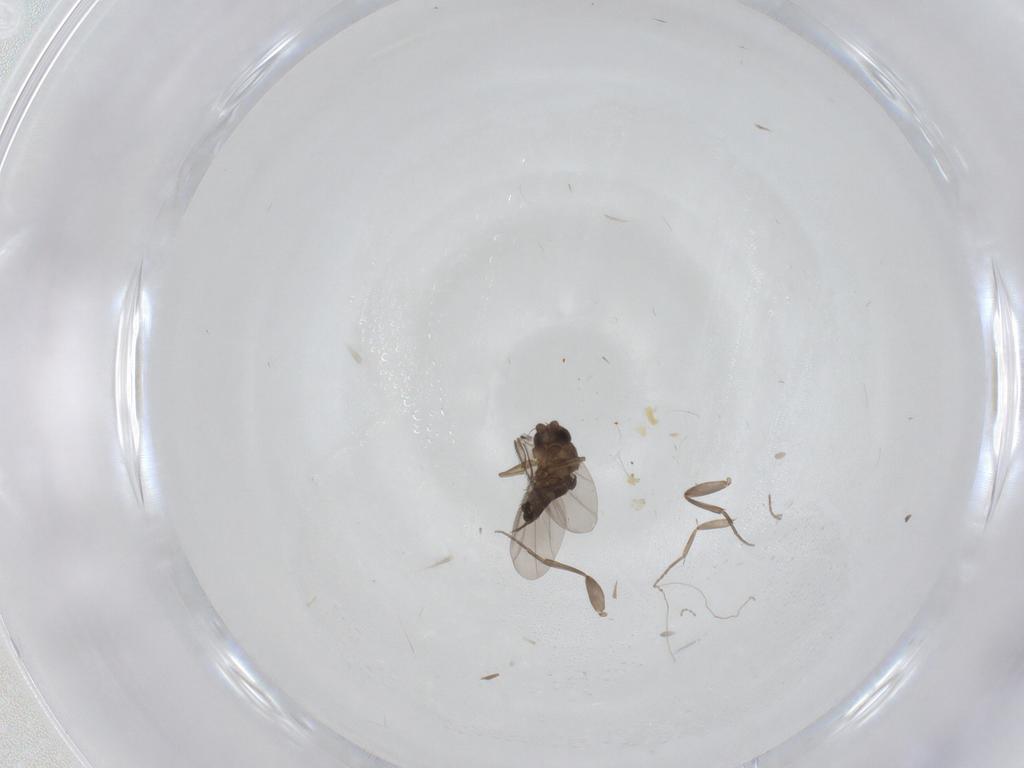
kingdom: Animalia
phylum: Arthropoda
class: Insecta
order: Diptera
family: Phoridae
